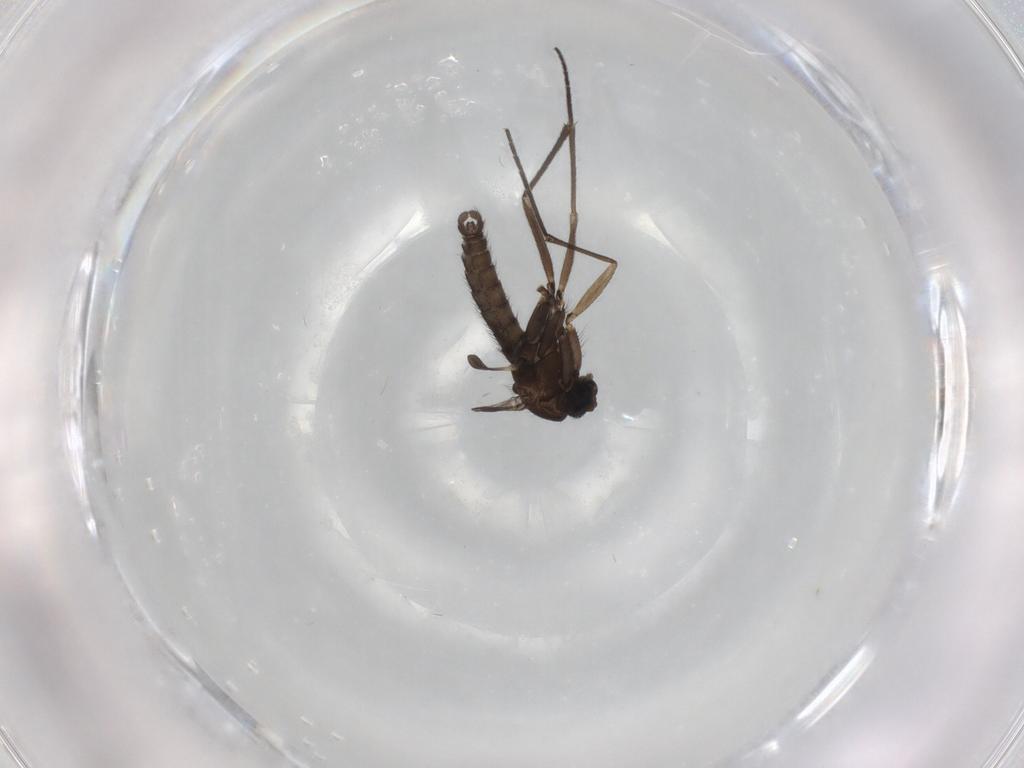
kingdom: Animalia
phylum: Arthropoda
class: Insecta
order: Diptera
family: Sciaridae
